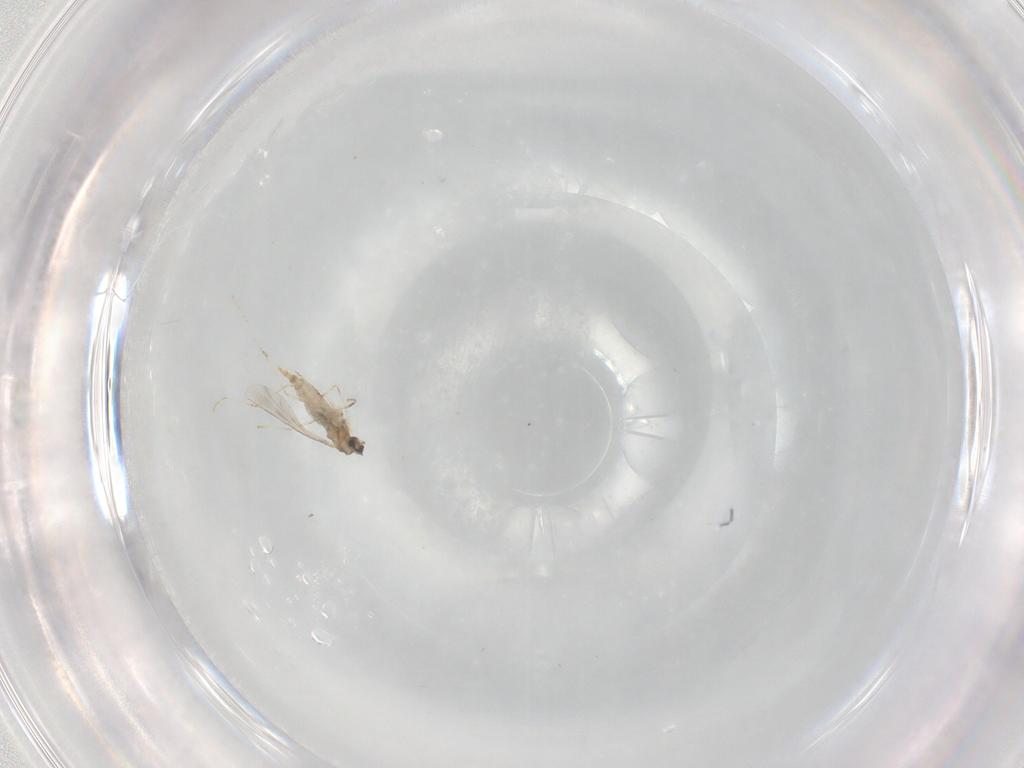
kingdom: Animalia
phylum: Arthropoda
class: Insecta
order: Diptera
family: Cecidomyiidae
